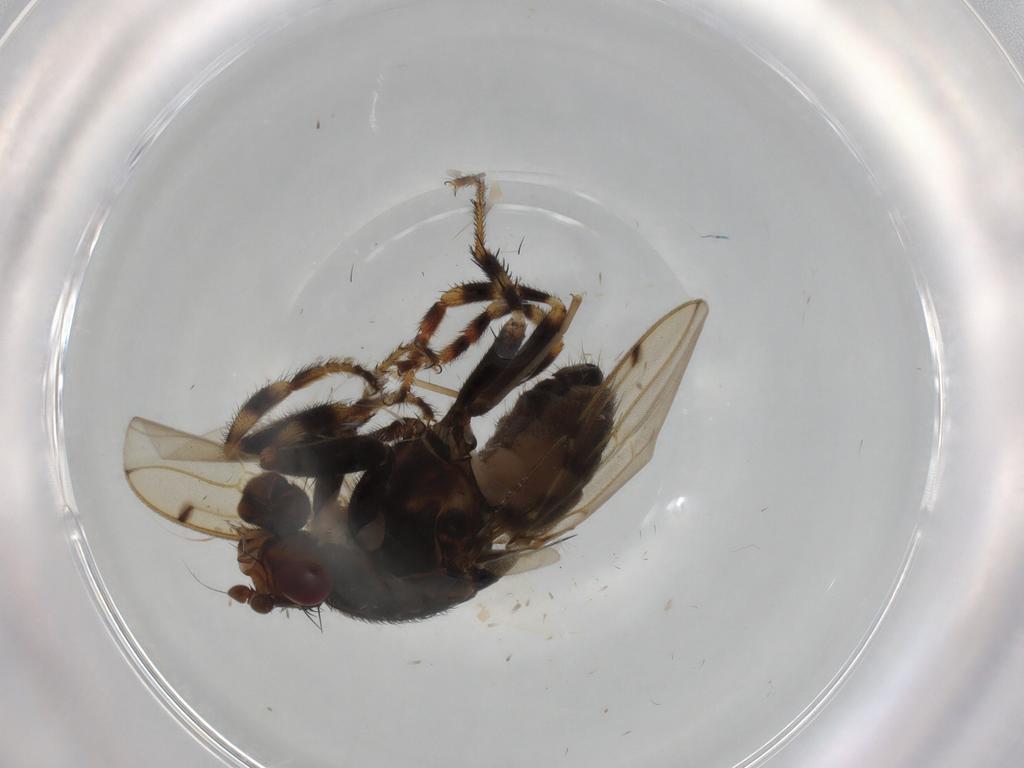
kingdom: Animalia
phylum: Arthropoda
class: Insecta
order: Diptera
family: Sphaeroceridae
